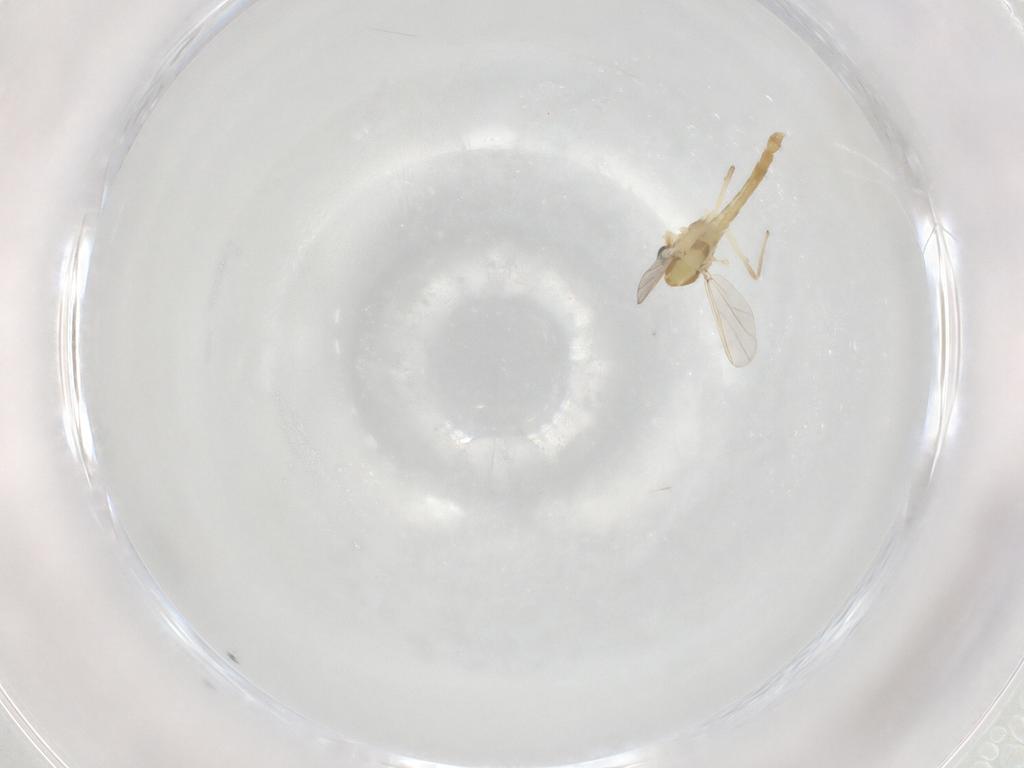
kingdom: Animalia
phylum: Arthropoda
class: Insecta
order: Diptera
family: Chironomidae
